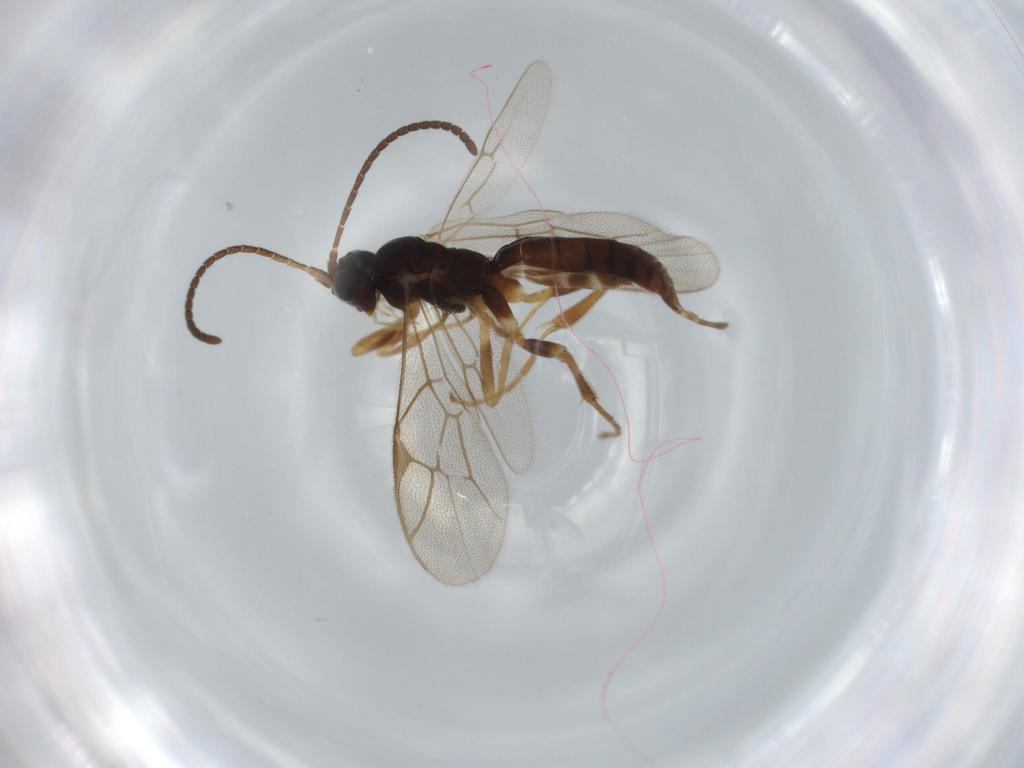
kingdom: Animalia
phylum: Arthropoda
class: Insecta
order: Hymenoptera
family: Ichneumonidae
